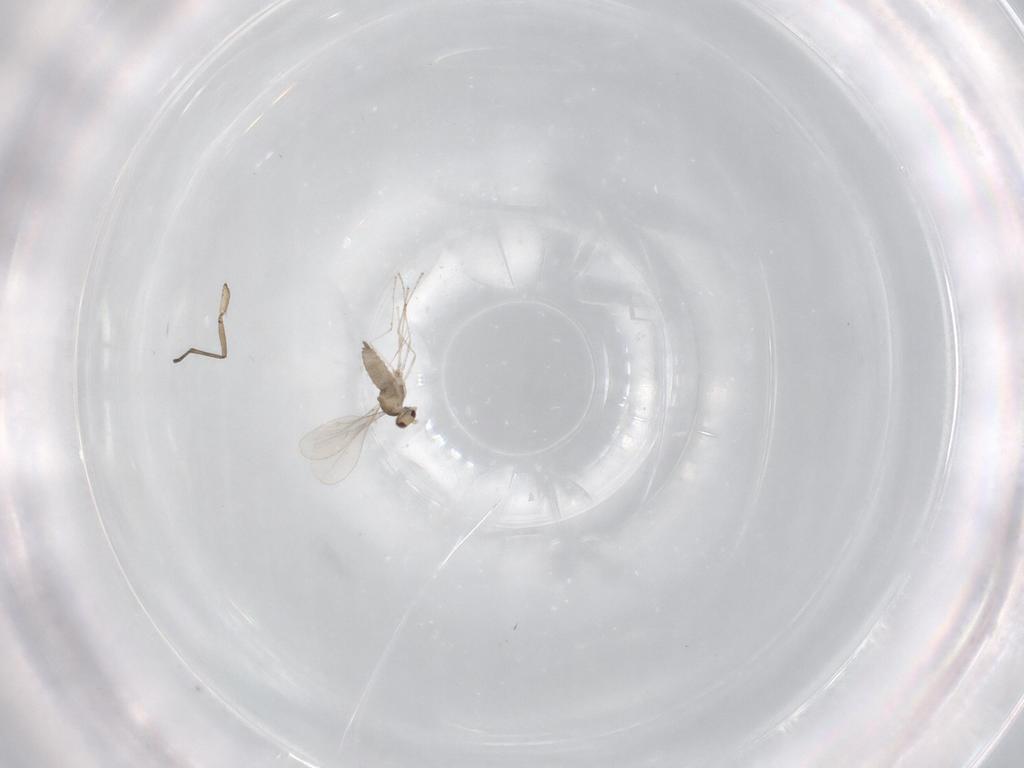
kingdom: Animalia
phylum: Arthropoda
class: Insecta
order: Diptera
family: Cecidomyiidae
